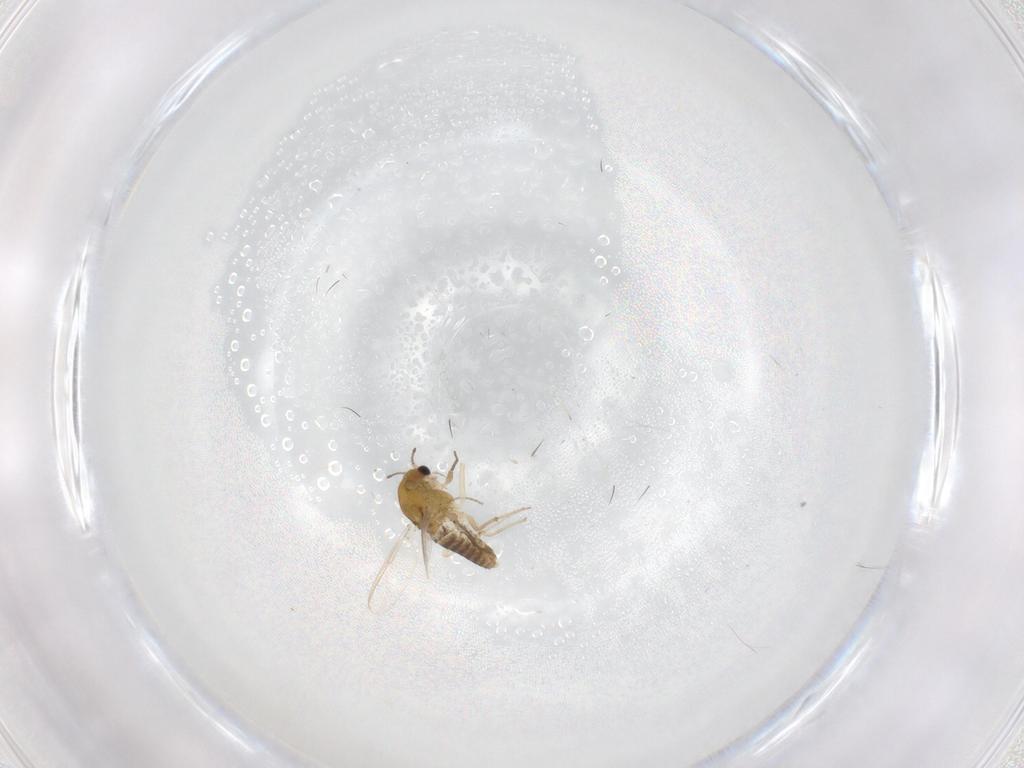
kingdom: Animalia
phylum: Arthropoda
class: Insecta
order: Diptera
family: Chironomidae
